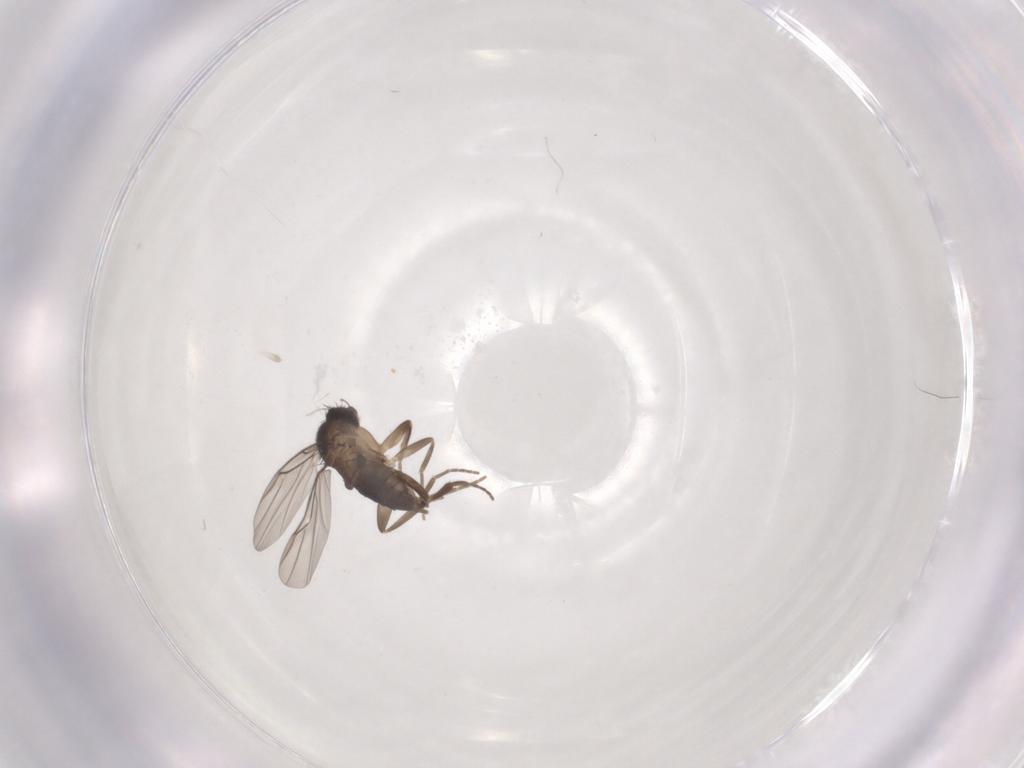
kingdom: Animalia
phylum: Arthropoda
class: Insecta
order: Diptera
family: Phoridae
